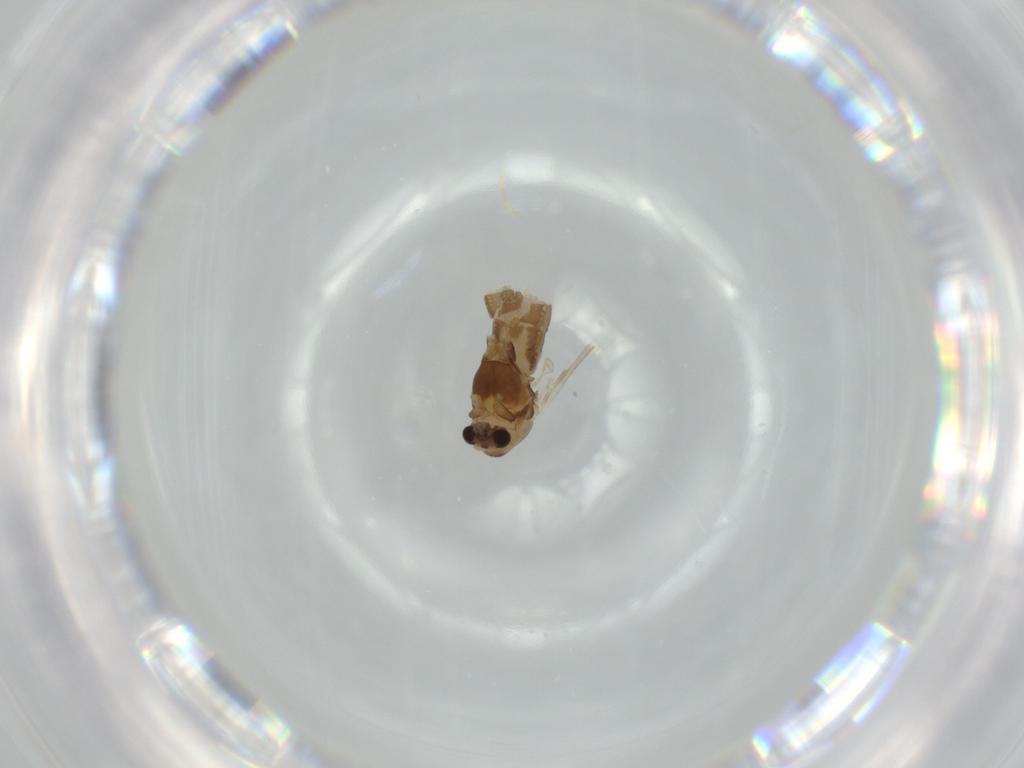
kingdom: Animalia
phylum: Arthropoda
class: Insecta
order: Diptera
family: Chironomidae
